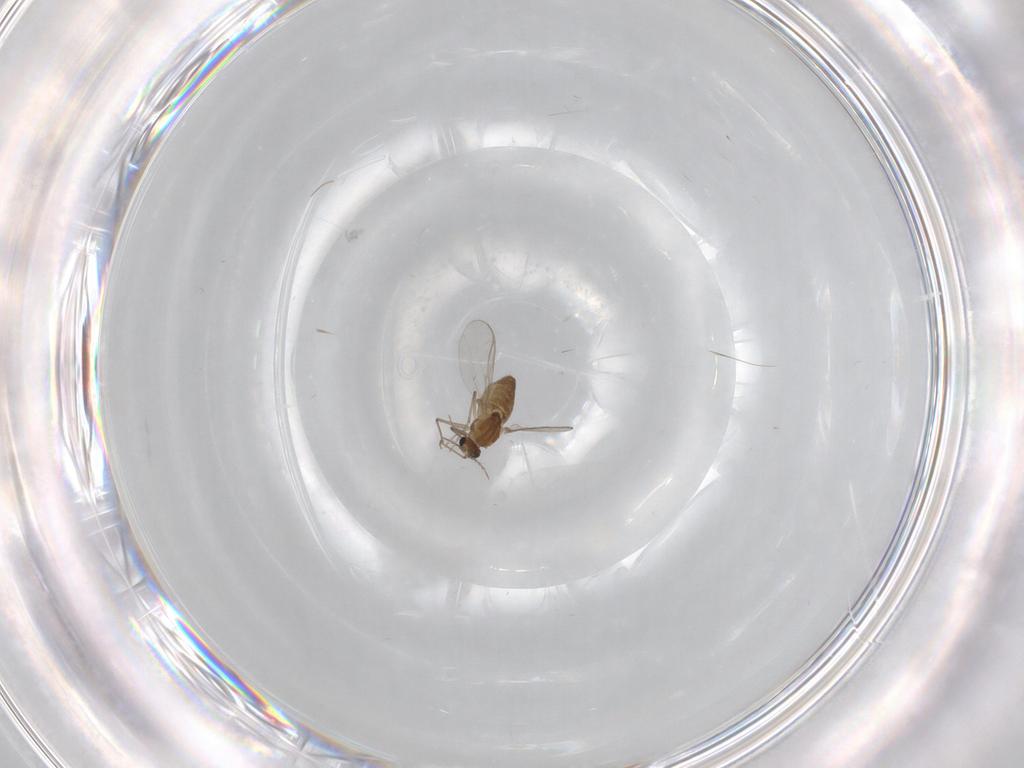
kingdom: Animalia
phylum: Arthropoda
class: Insecta
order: Diptera
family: Chironomidae
